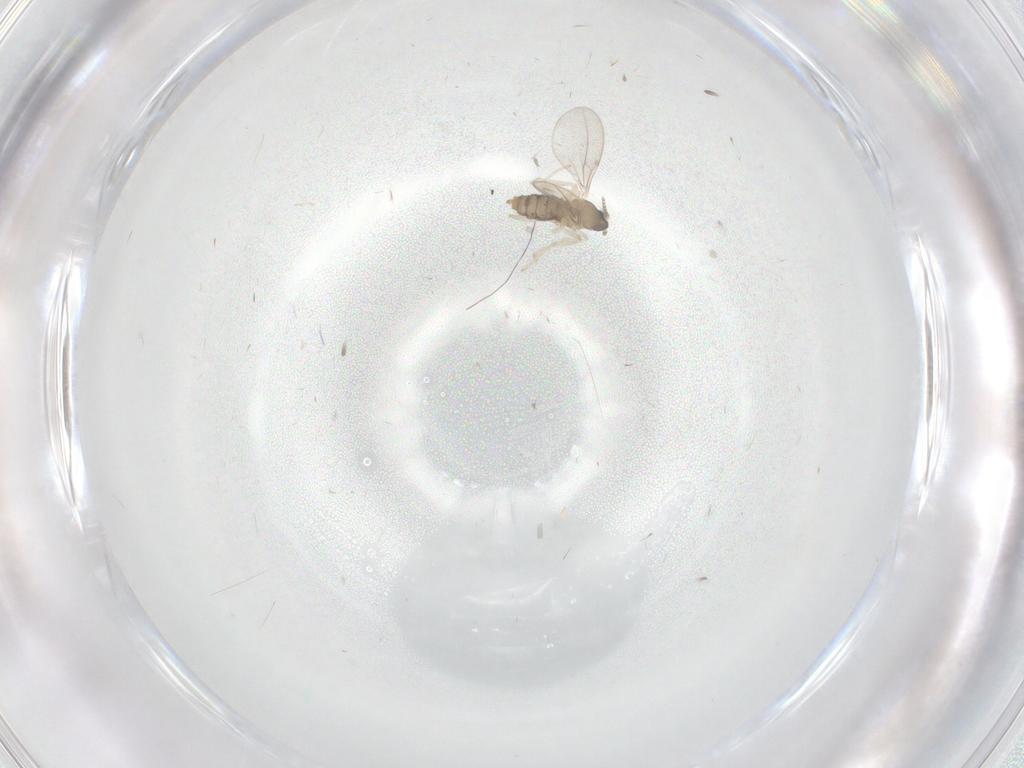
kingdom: Animalia
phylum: Arthropoda
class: Insecta
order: Diptera
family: Cecidomyiidae
